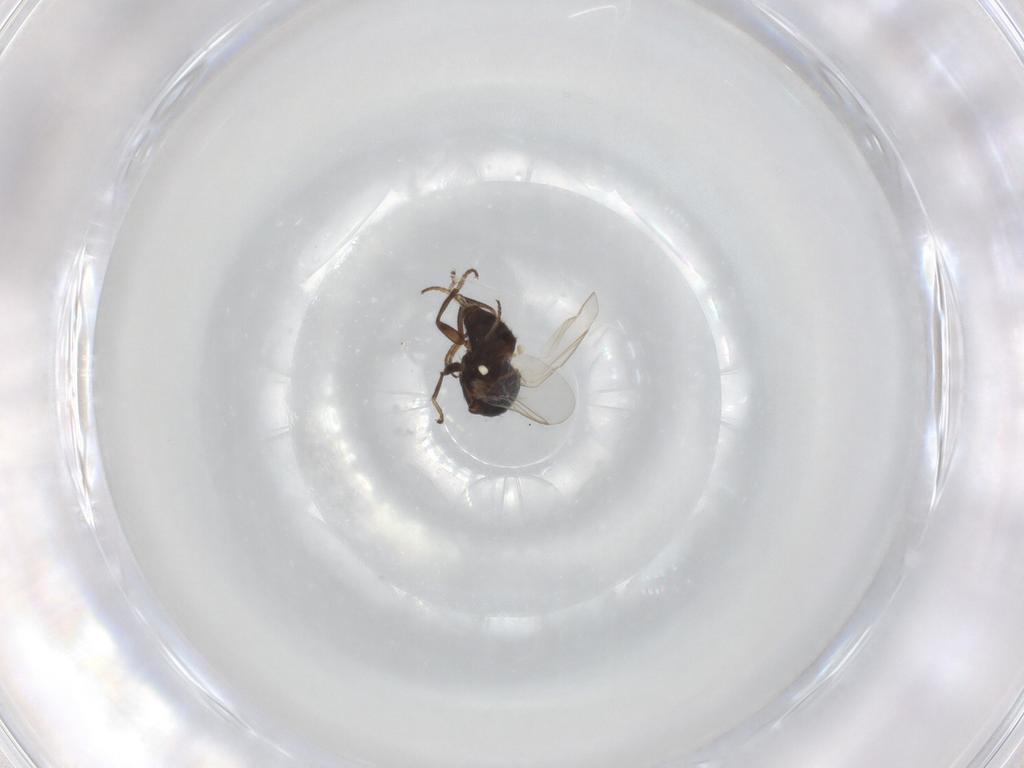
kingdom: Animalia
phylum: Arthropoda
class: Insecta
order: Diptera
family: Agromyzidae
